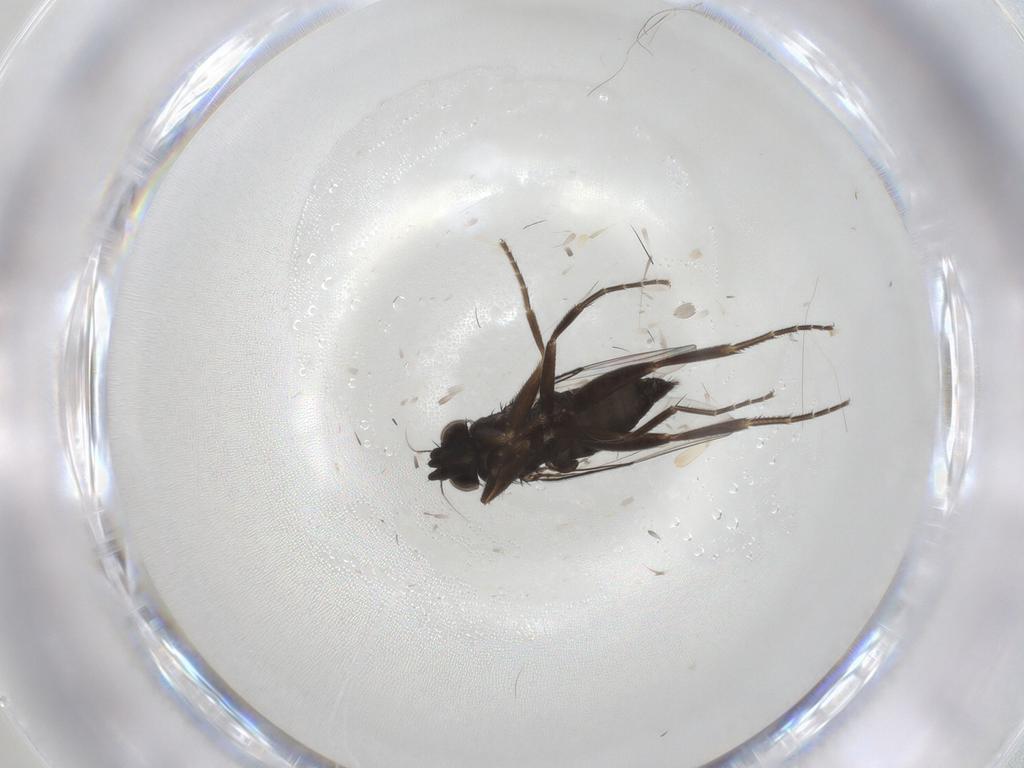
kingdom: Animalia
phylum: Arthropoda
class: Insecta
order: Diptera
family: Phoridae
